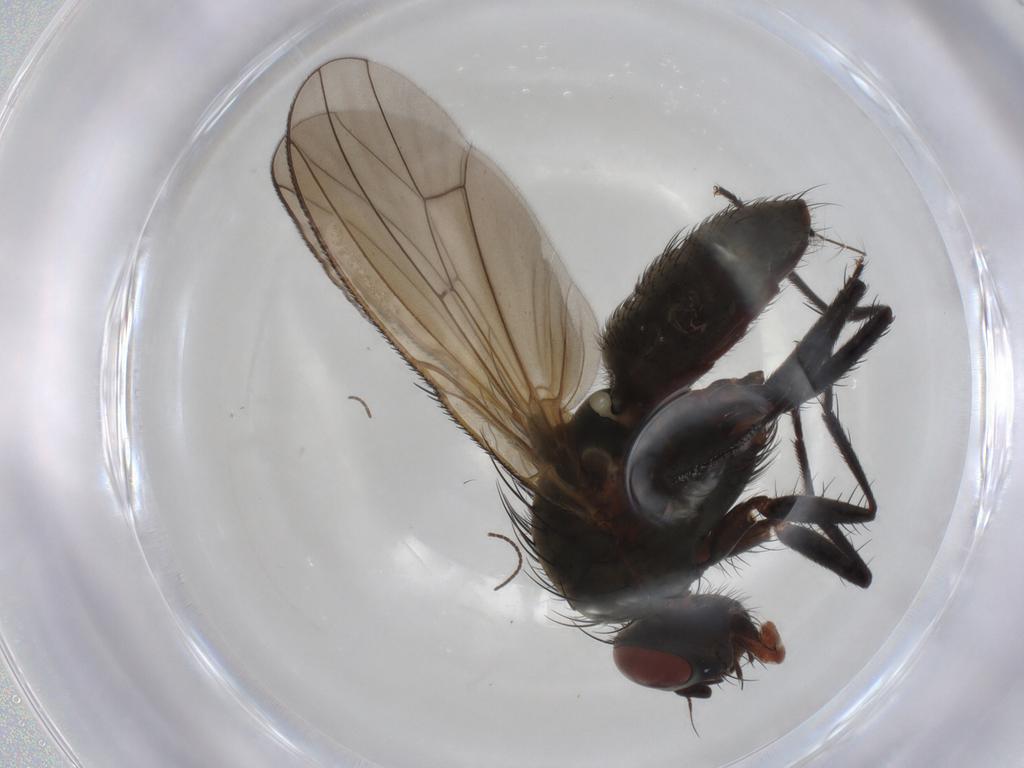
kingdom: Animalia
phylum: Arthropoda
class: Insecta
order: Diptera
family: Anthomyiidae
